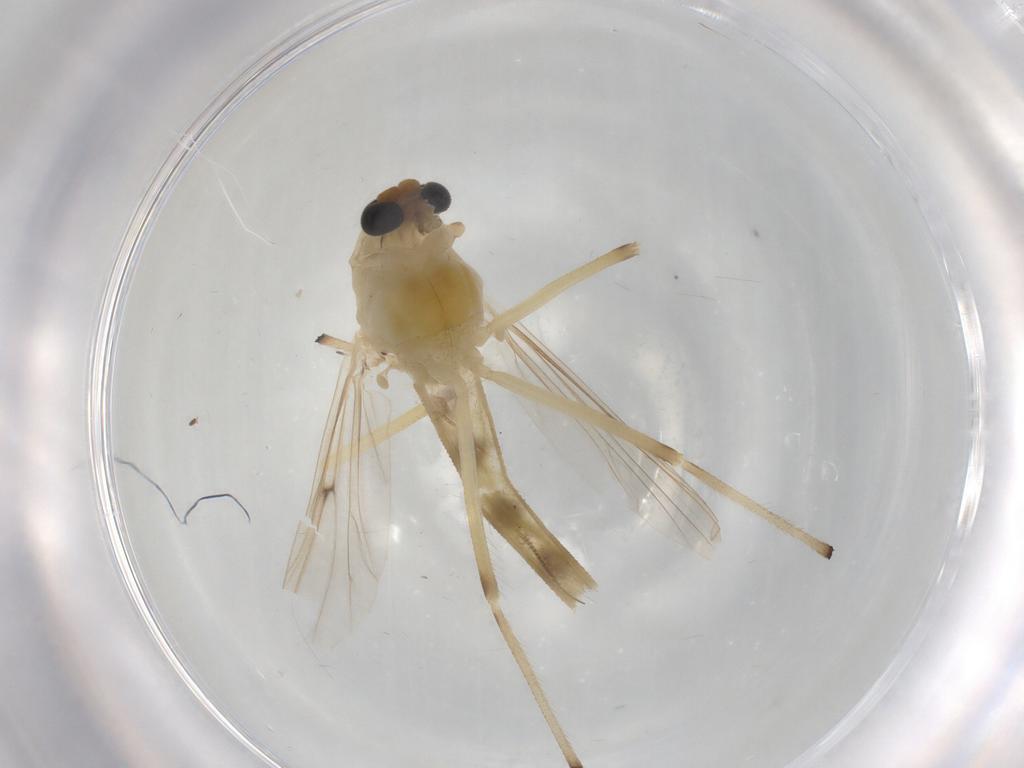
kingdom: Animalia
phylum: Arthropoda
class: Insecta
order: Diptera
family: Chaoboridae
